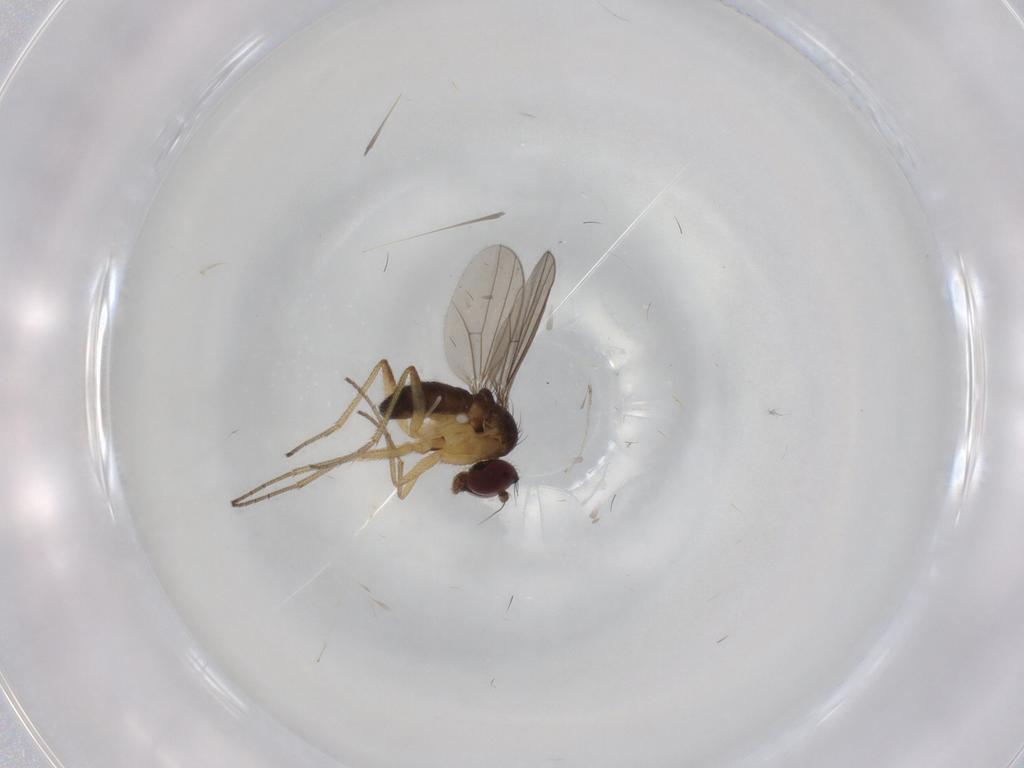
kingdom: Animalia
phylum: Arthropoda
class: Insecta
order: Diptera
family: Dolichopodidae
